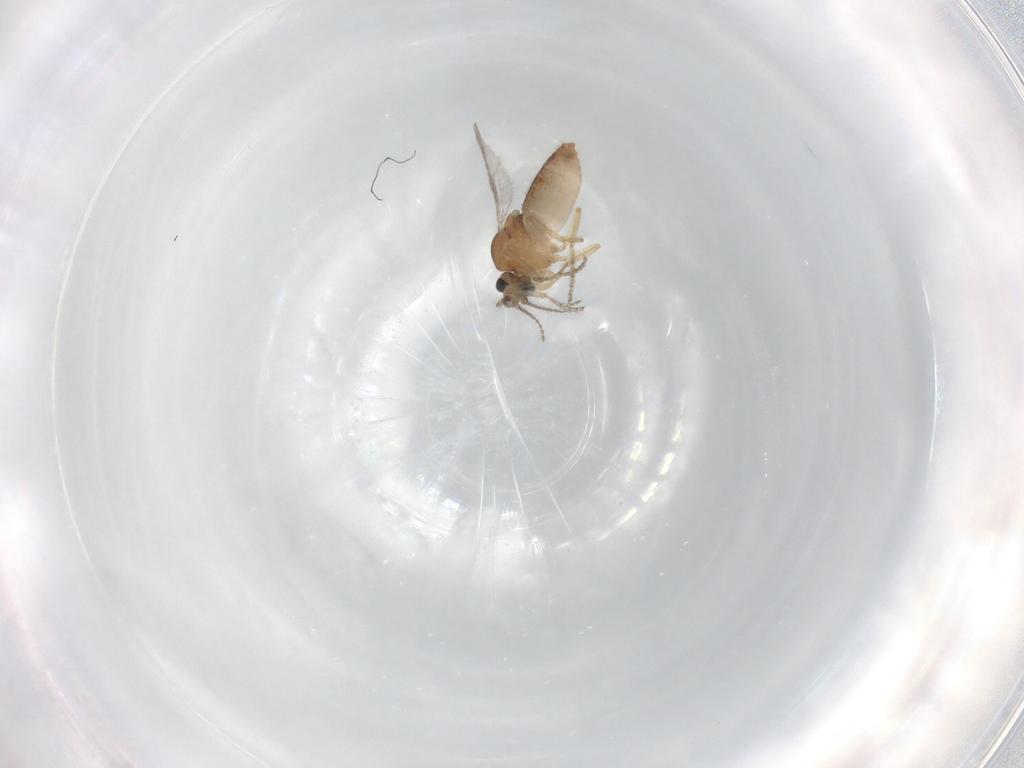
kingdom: Animalia
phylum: Arthropoda
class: Insecta
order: Diptera
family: Ceratopogonidae
